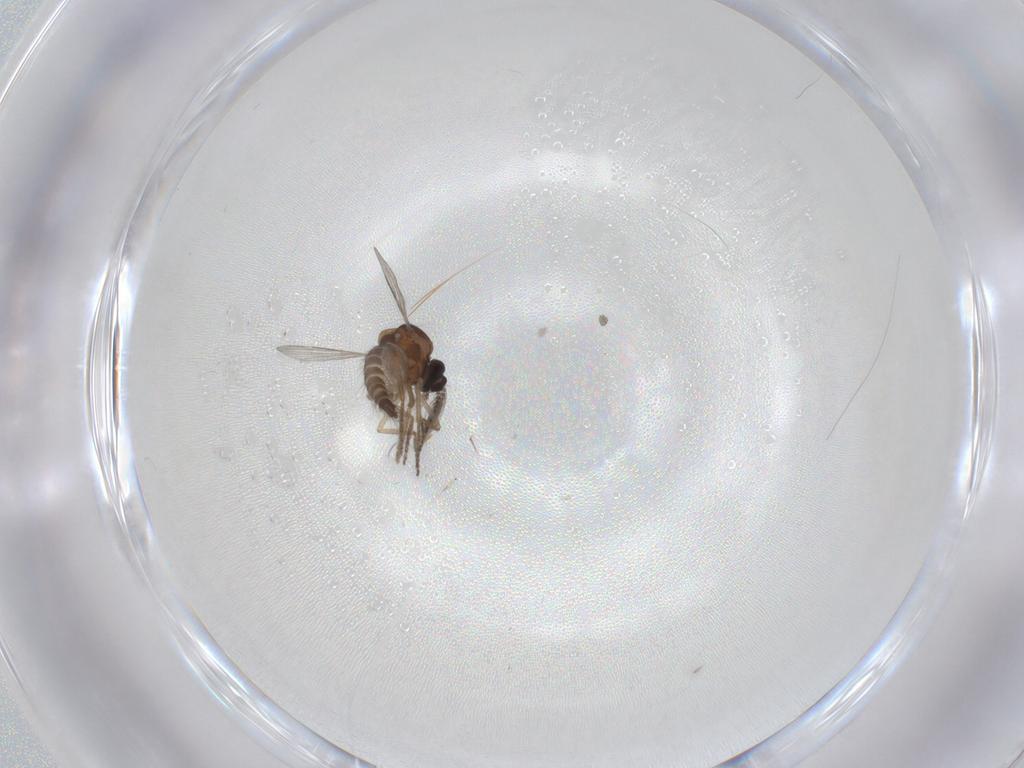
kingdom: Animalia
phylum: Arthropoda
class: Insecta
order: Diptera
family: Ceratopogonidae
